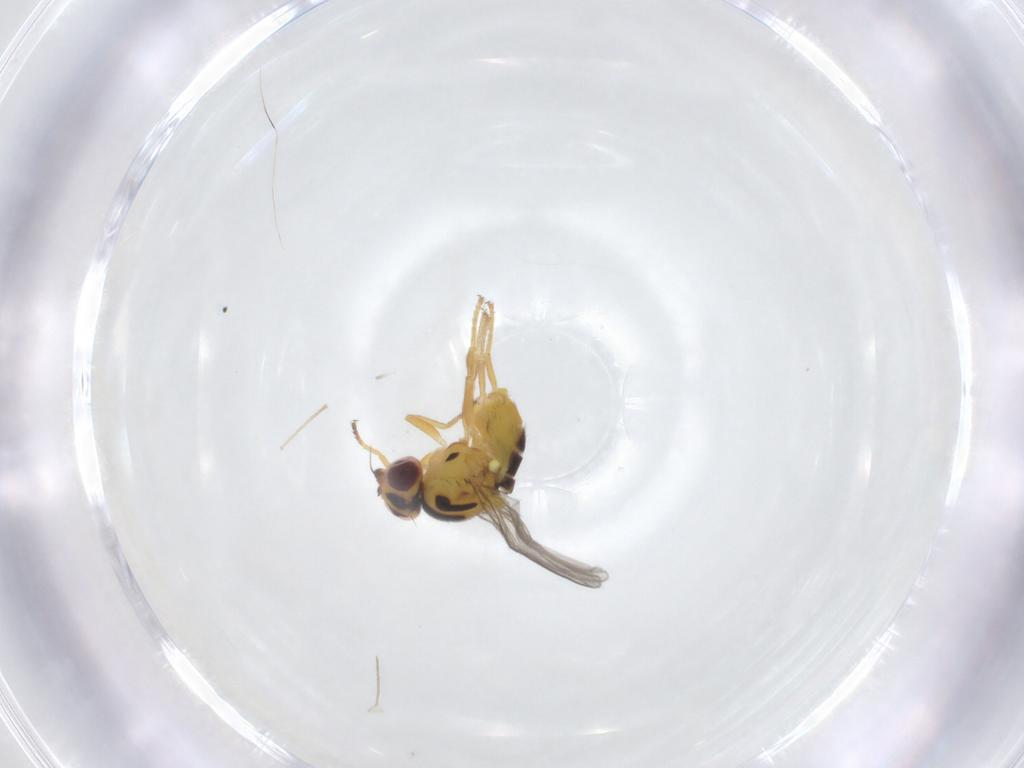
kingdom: Animalia
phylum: Arthropoda
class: Insecta
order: Diptera
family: Chloropidae
